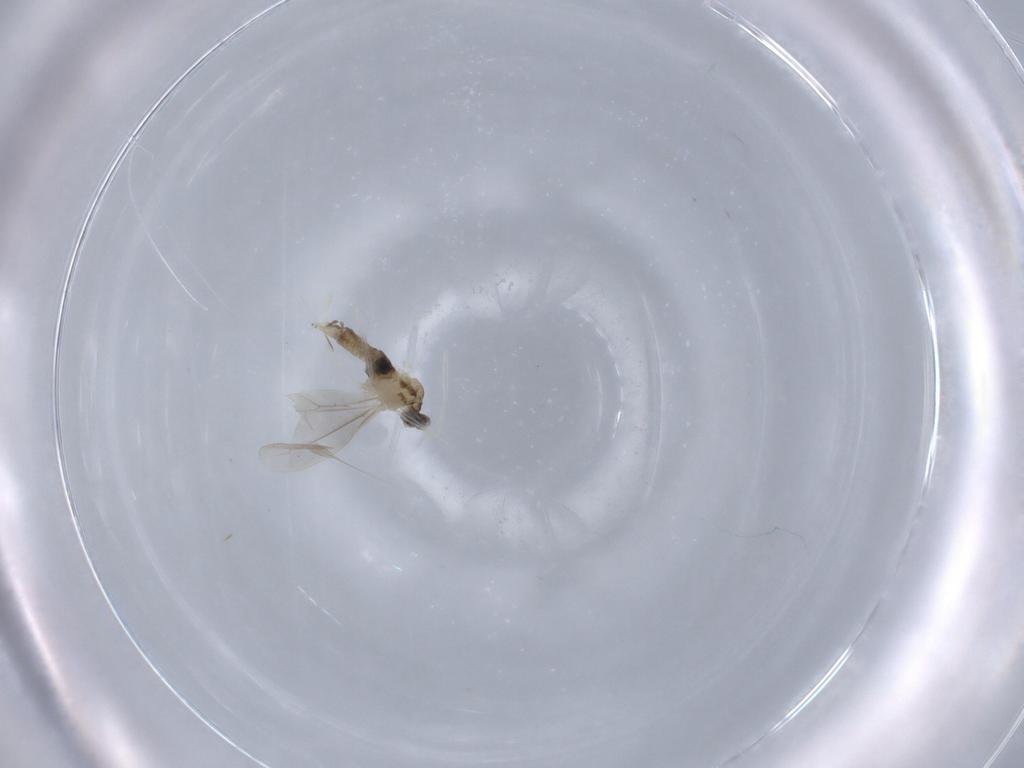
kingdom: Animalia
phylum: Arthropoda
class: Insecta
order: Diptera
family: Cecidomyiidae
